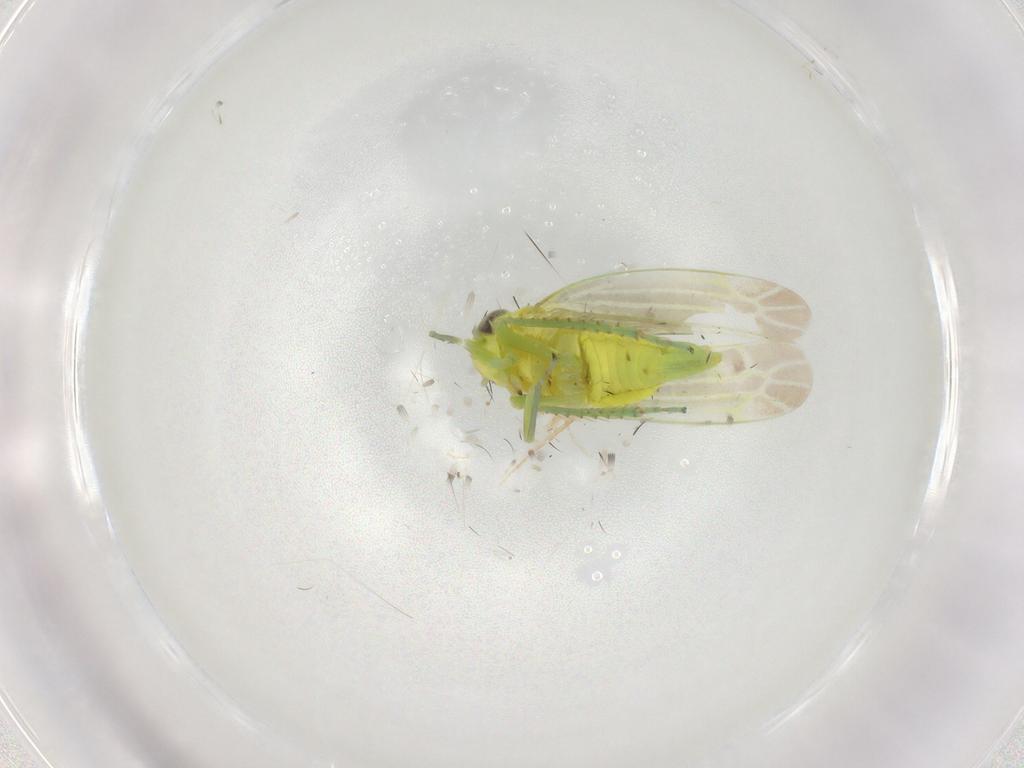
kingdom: Animalia
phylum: Arthropoda
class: Insecta
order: Hemiptera
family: Cicadellidae
